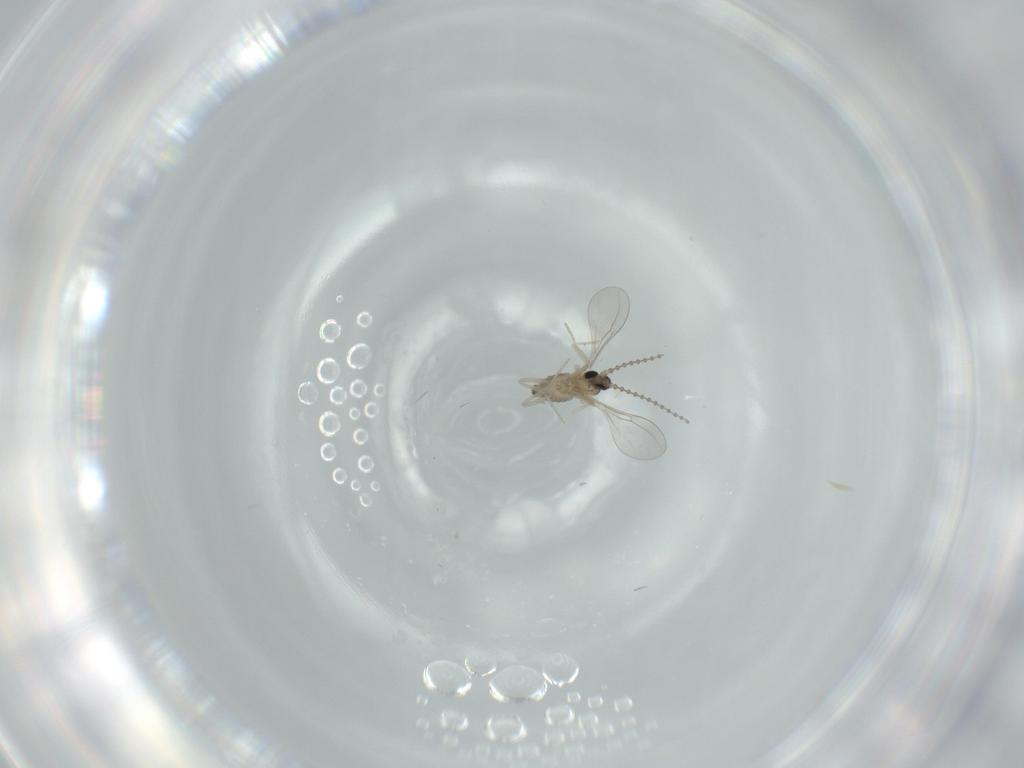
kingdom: Animalia
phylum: Arthropoda
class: Insecta
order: Diptera
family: Cecidomyiidae
